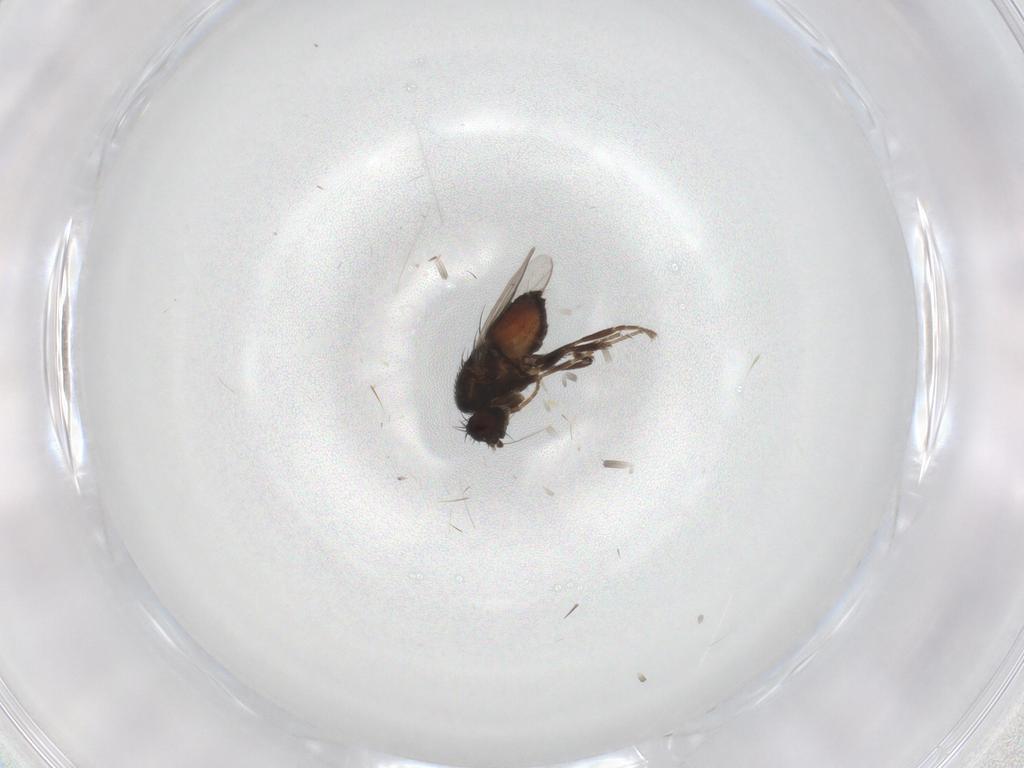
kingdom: Animalia
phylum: Arthropoda
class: Insecta
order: Diptera
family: Sphaeroceridae
